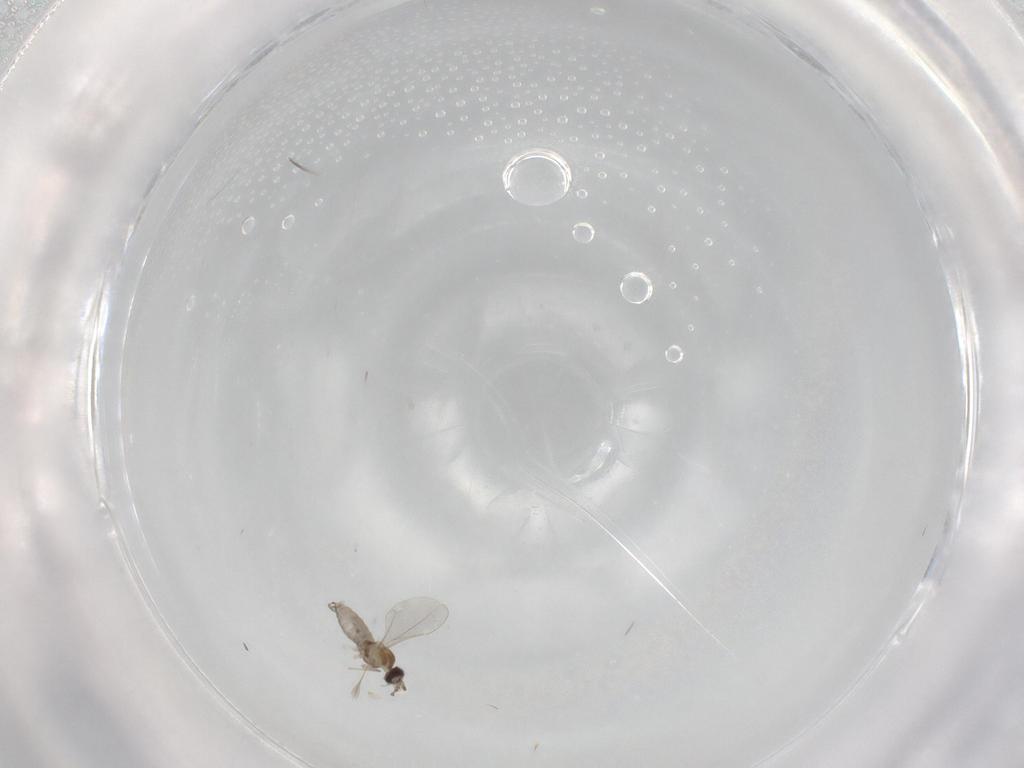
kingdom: Animalia
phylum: Arthropoda
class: Insecta
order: Diptera
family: Cecidomyiidae
